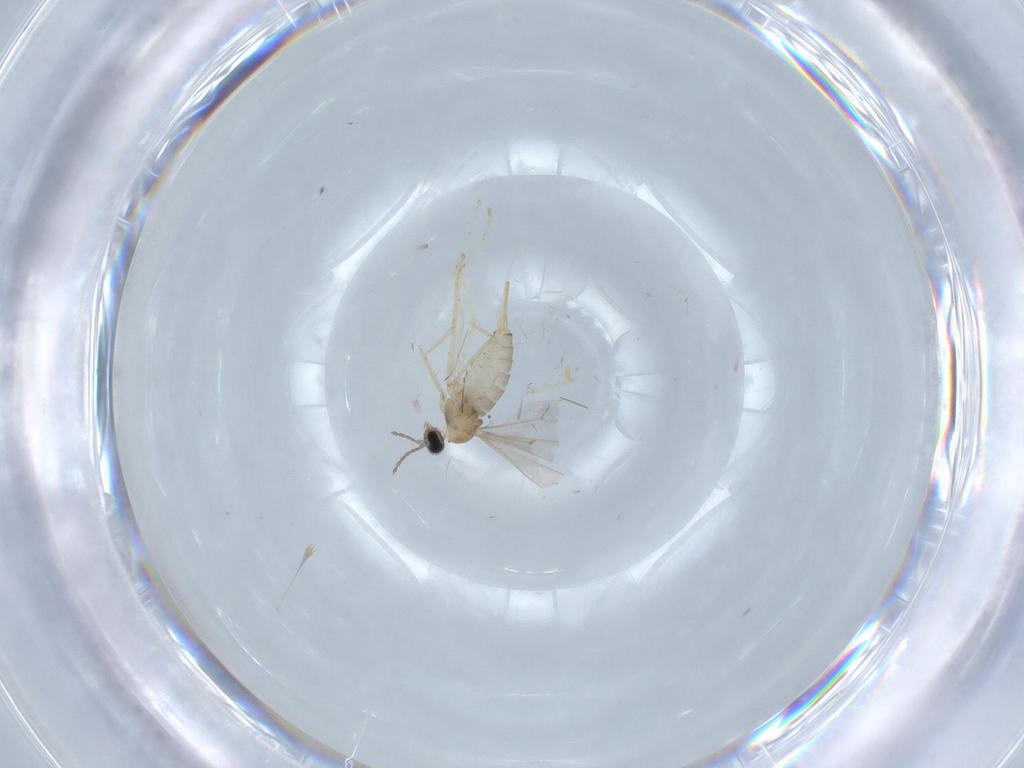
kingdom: Animalia
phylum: Arthropoda
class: Insecta
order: Diptera
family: Cecidomyiidae
